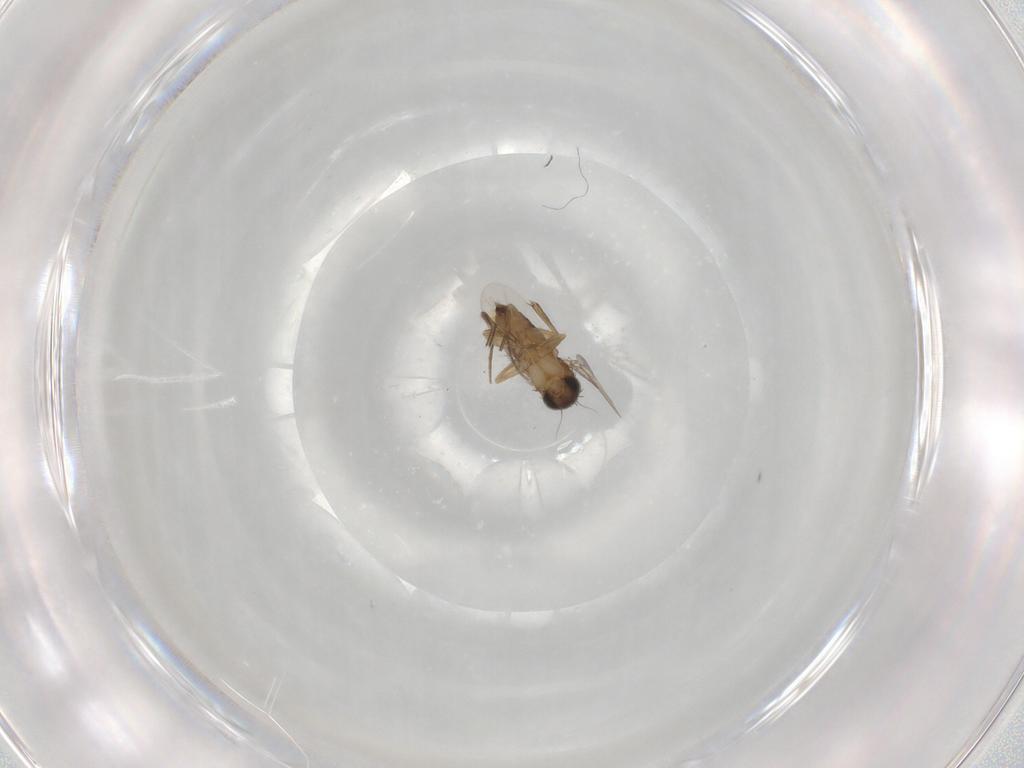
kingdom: Animalia
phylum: Arthropoda
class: Insecta
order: Diptera
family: Phoridae
